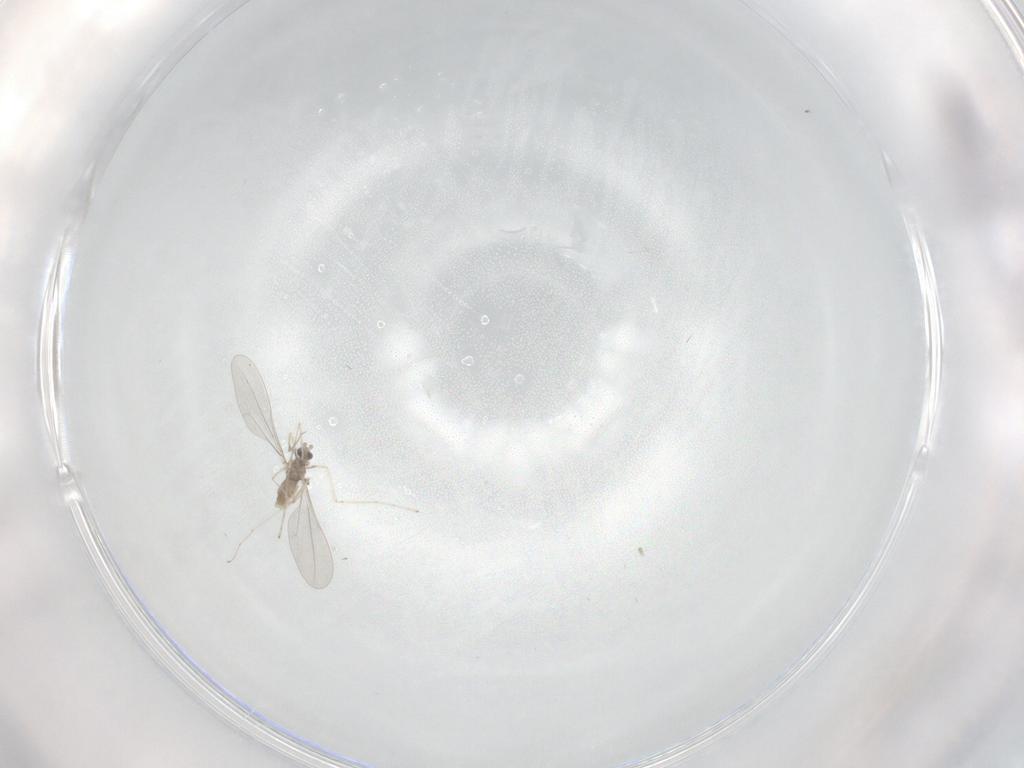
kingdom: Animalia
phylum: Arthropoda
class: Insecta
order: Diptera
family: Cecidomyiidae
